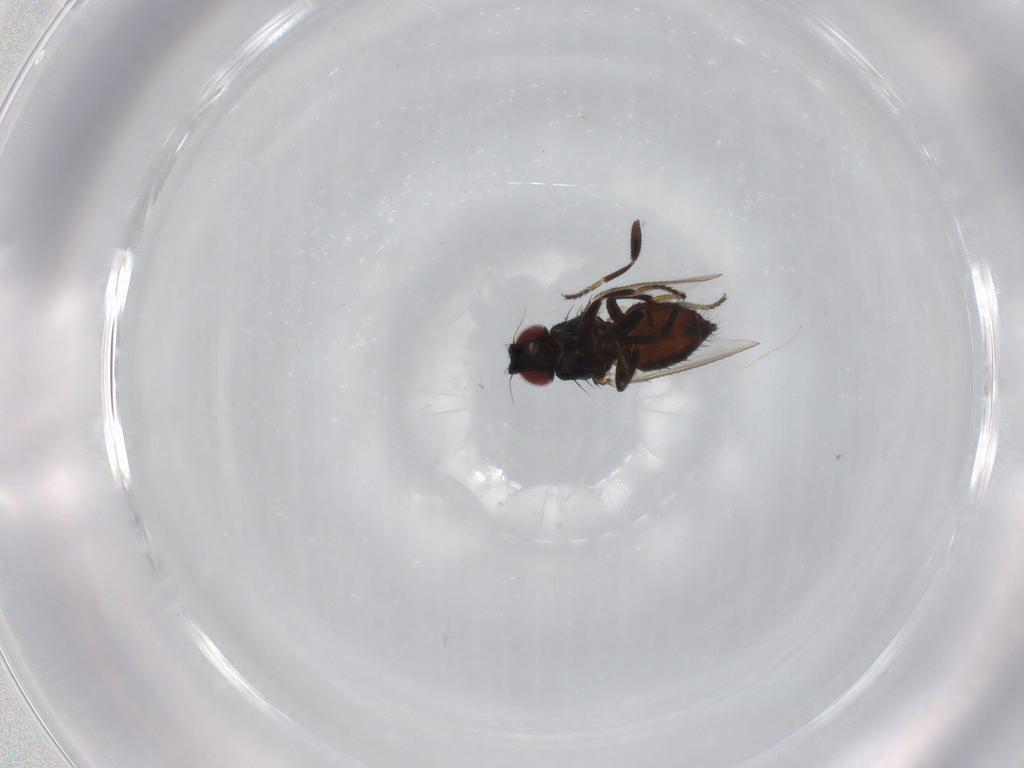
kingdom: Animalia
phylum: Arthropoda
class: Insecta
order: Diptera
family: Milichiidae
